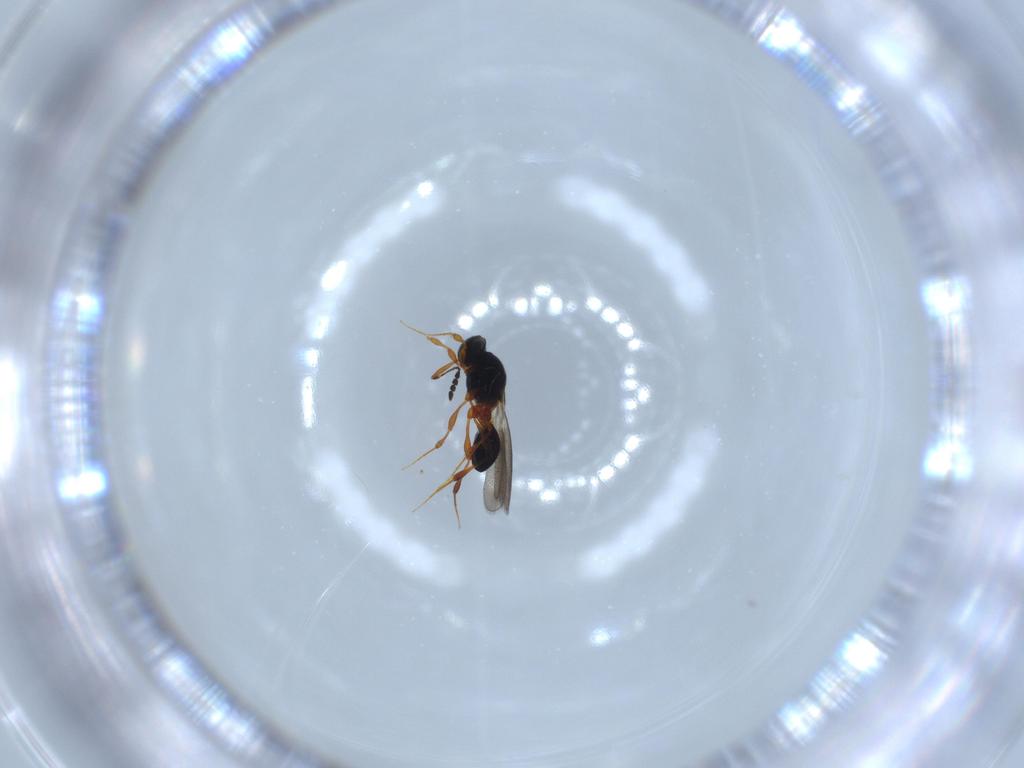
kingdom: Animalia
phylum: Arthropoda
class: Insecta
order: Hymenoptera
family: Platygastridae
